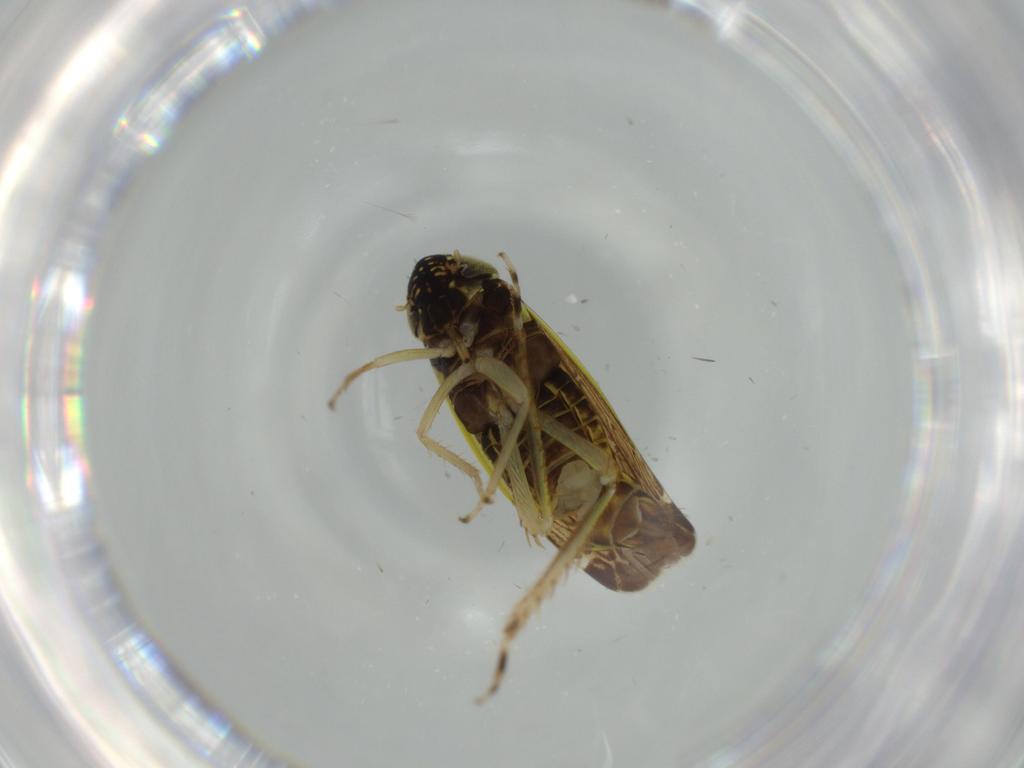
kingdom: Animalia
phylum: Arthropoda
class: Insecta
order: Hemiptera
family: Cicadellidae
